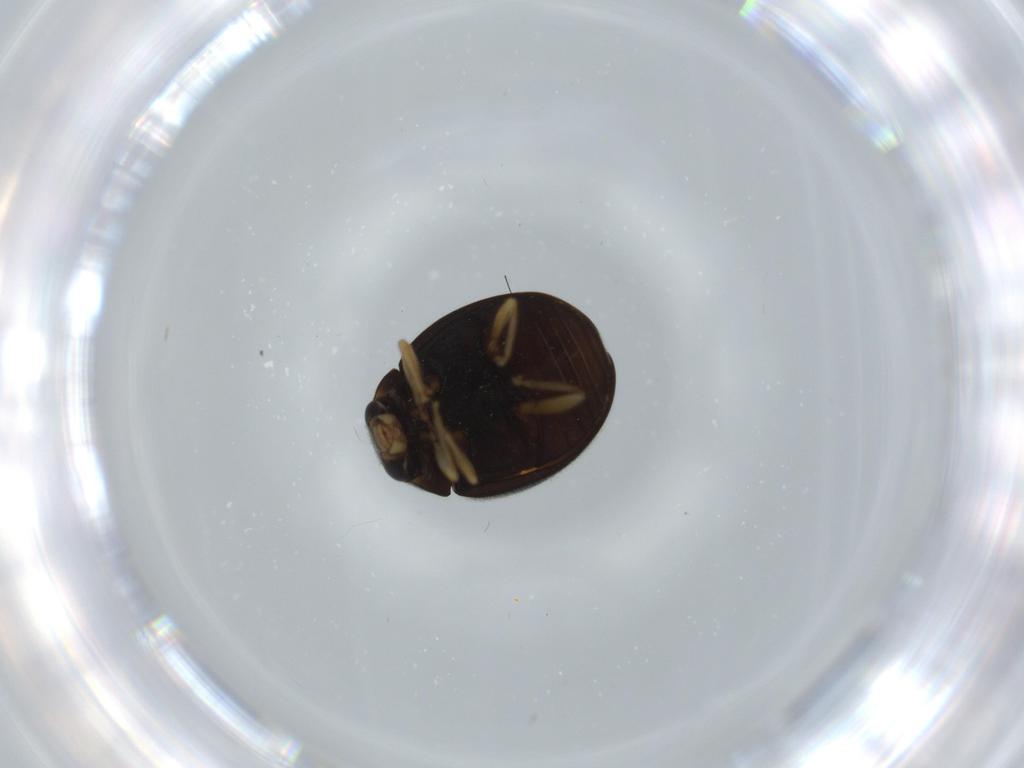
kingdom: Animalia
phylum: Arthropoda
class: Insecta
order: Coleoptera
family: Coccinellidae
